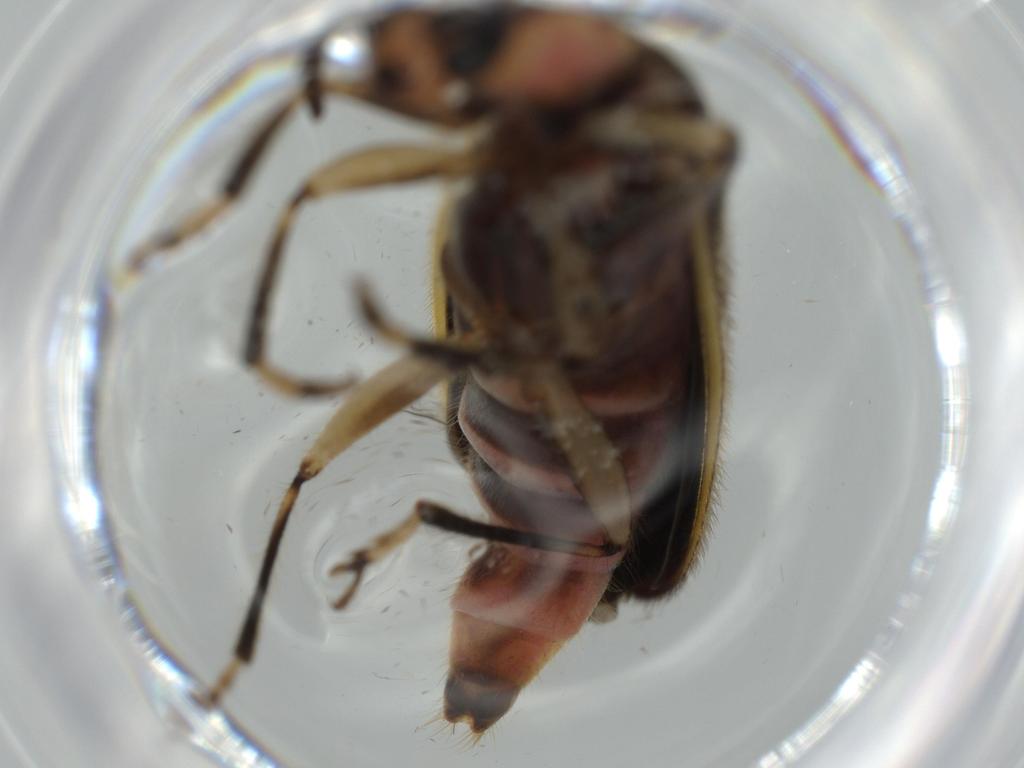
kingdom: Animalia
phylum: Arthropoda
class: Insecta
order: Coleoptera
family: Cleridae
